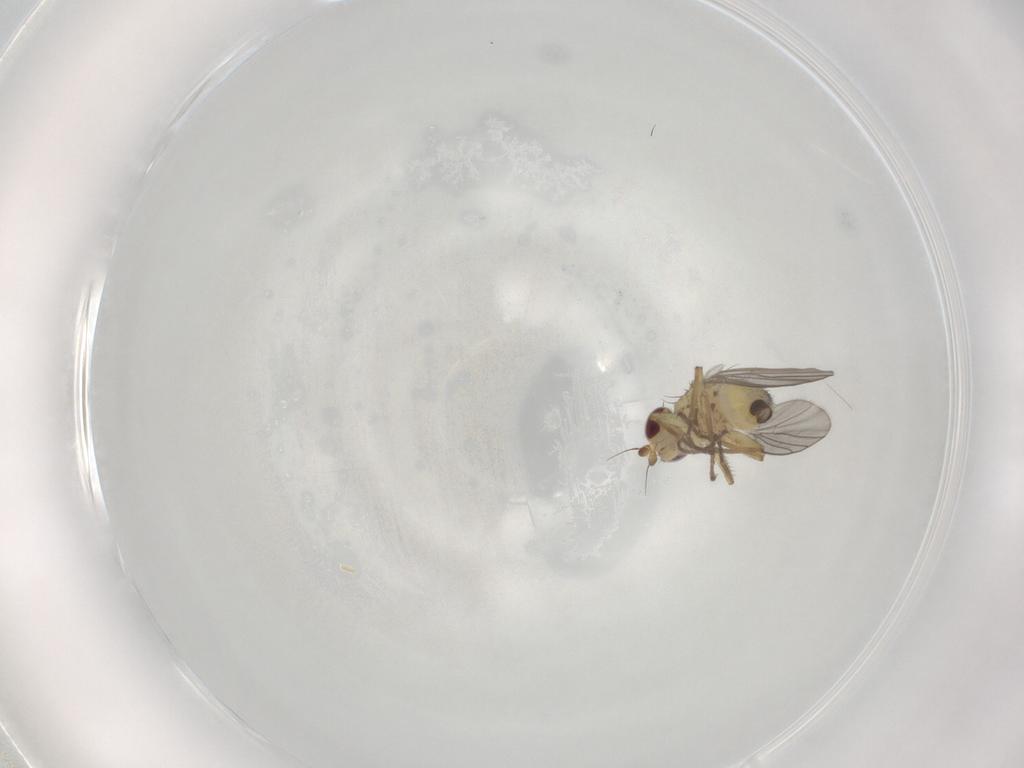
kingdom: Animalia
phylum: Arthropoda
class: Insecta
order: Diptera
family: Agromyzidae
